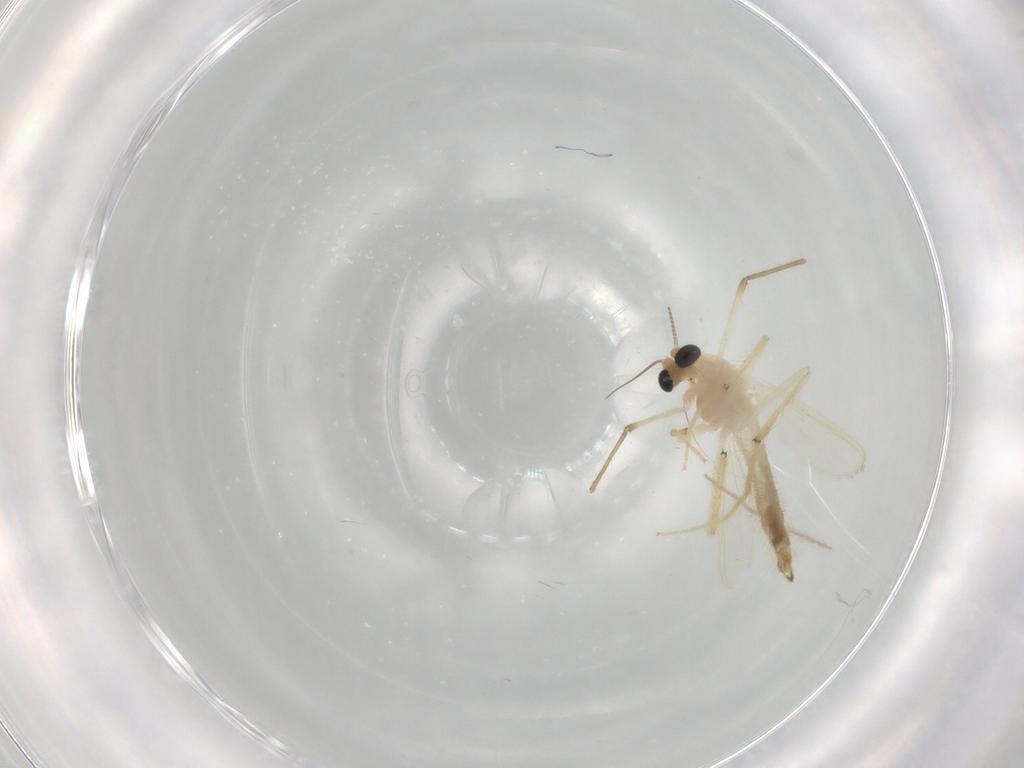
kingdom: Animalia
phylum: Arthropoda
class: Insecta
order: Diptera
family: Chironomidae
